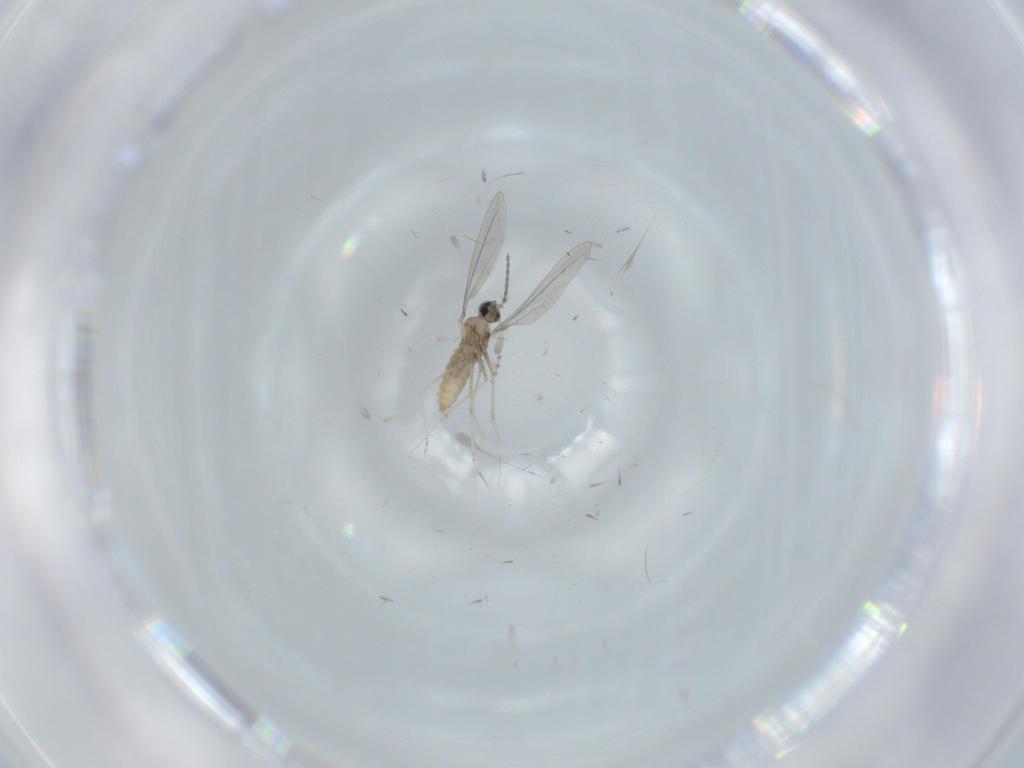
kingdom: Animalia
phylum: Arthropoda
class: Insecta
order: Diptera
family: Cecidomyiidae
